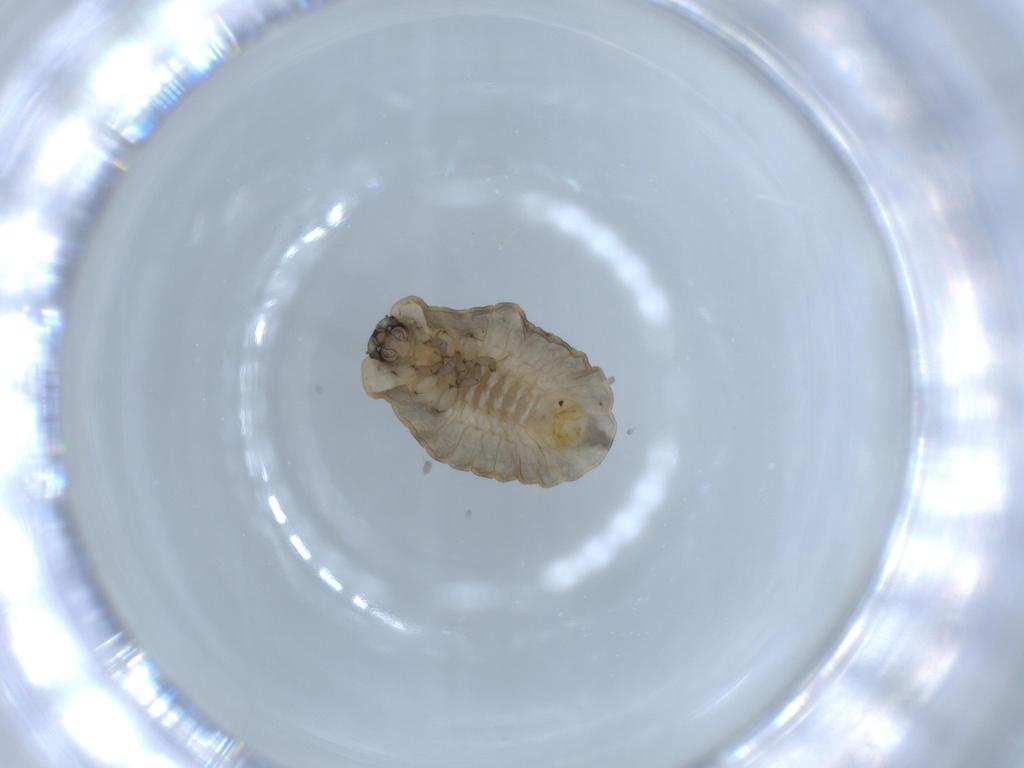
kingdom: Animalia
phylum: Arthropoda
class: Insecta
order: Coleoptera
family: Coccinellidae
